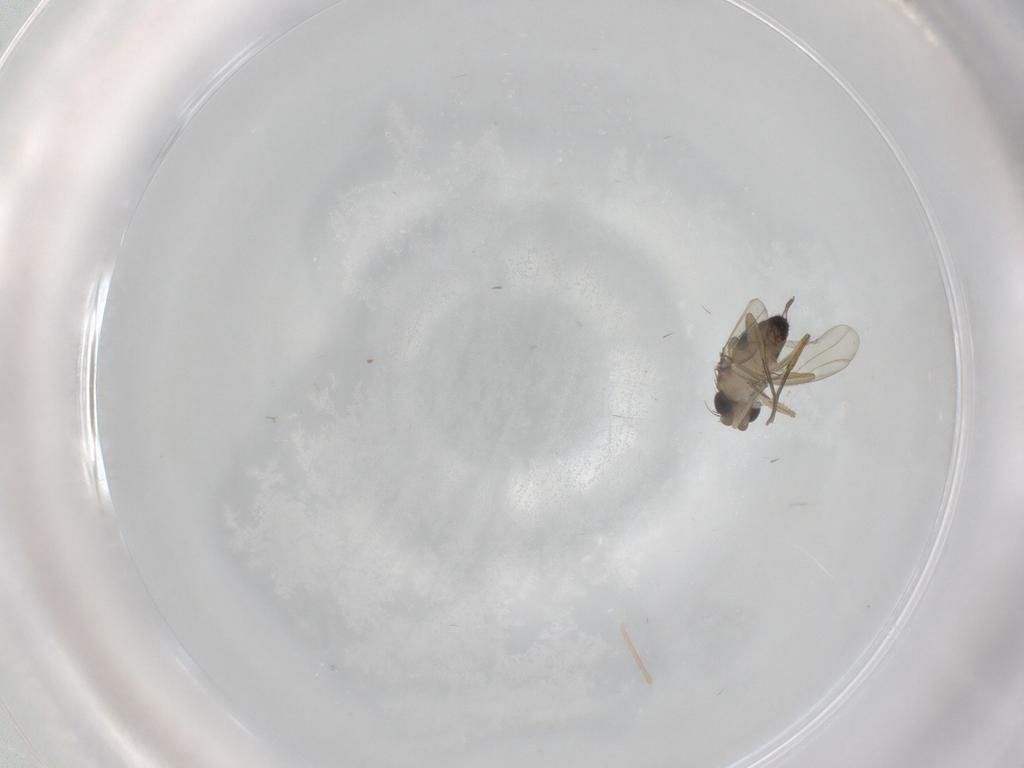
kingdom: Animalia
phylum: Arthropoda
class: Insecta
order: Diptera
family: Chironomidae
